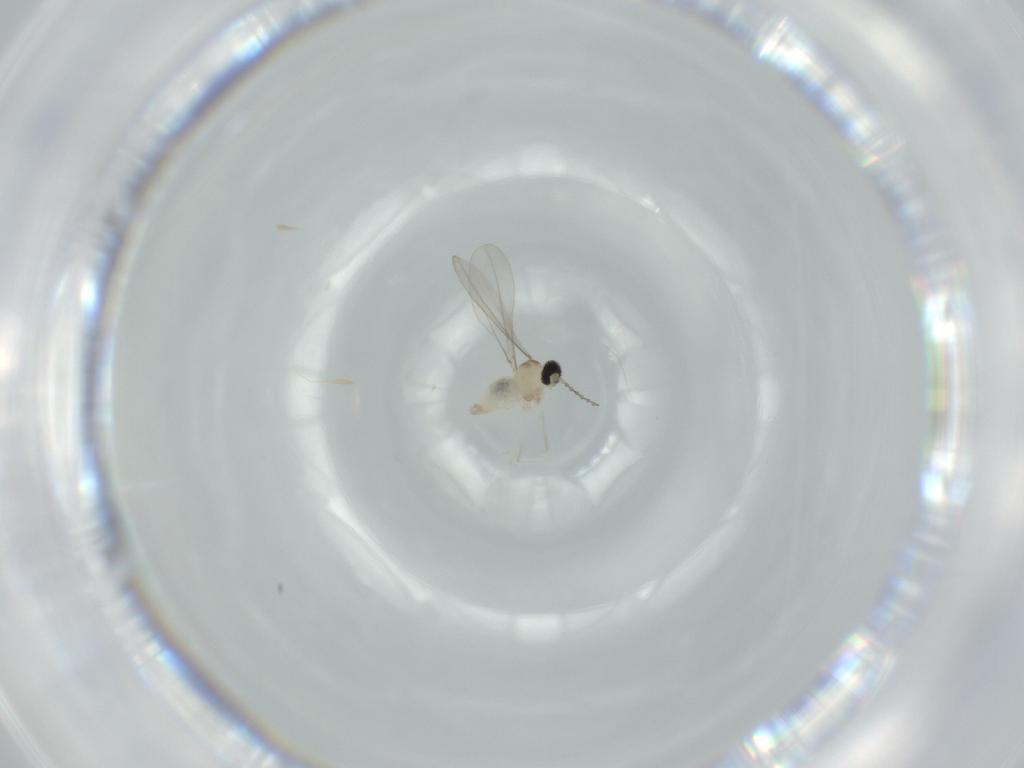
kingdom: Animalia
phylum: Arthropoda
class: Insecta
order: Diptera
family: Cecidomyiidae
